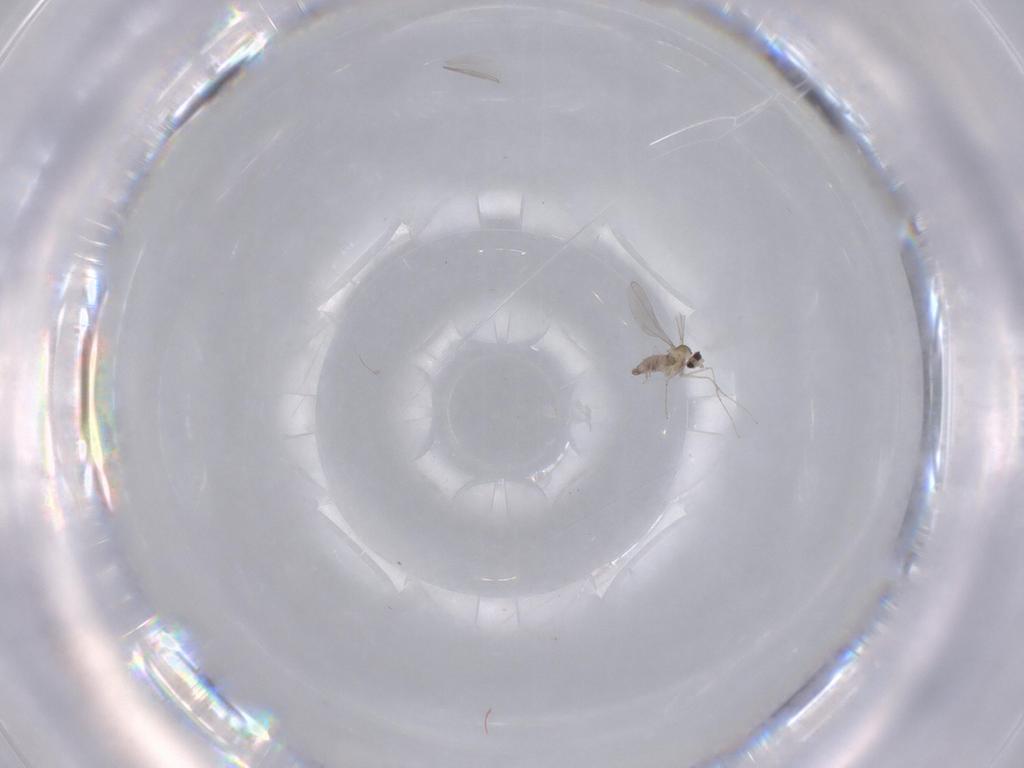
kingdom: Animalia
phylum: Arthropoda
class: Insecta
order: Diptera
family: Cecidomyiidae
